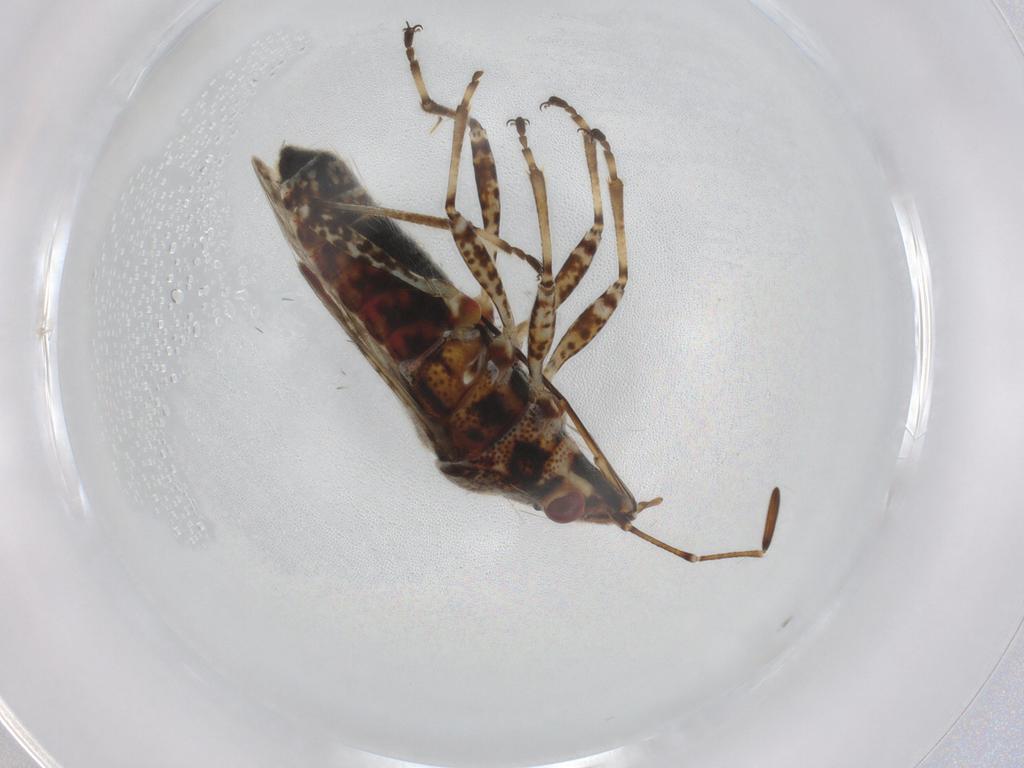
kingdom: Animalia
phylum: Arthropoda
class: Insecta
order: Hemiptera
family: Lygaeidae
